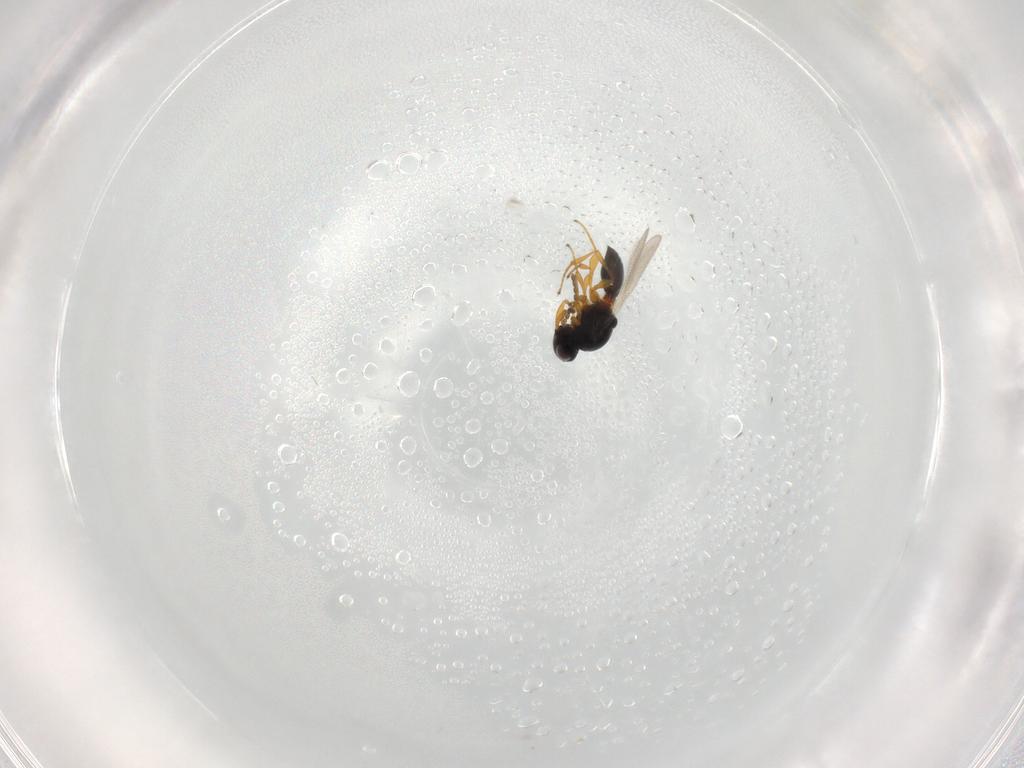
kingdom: Animalia
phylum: Arthropoda
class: Insecta
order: Hymenoptera
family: Platygastridae
